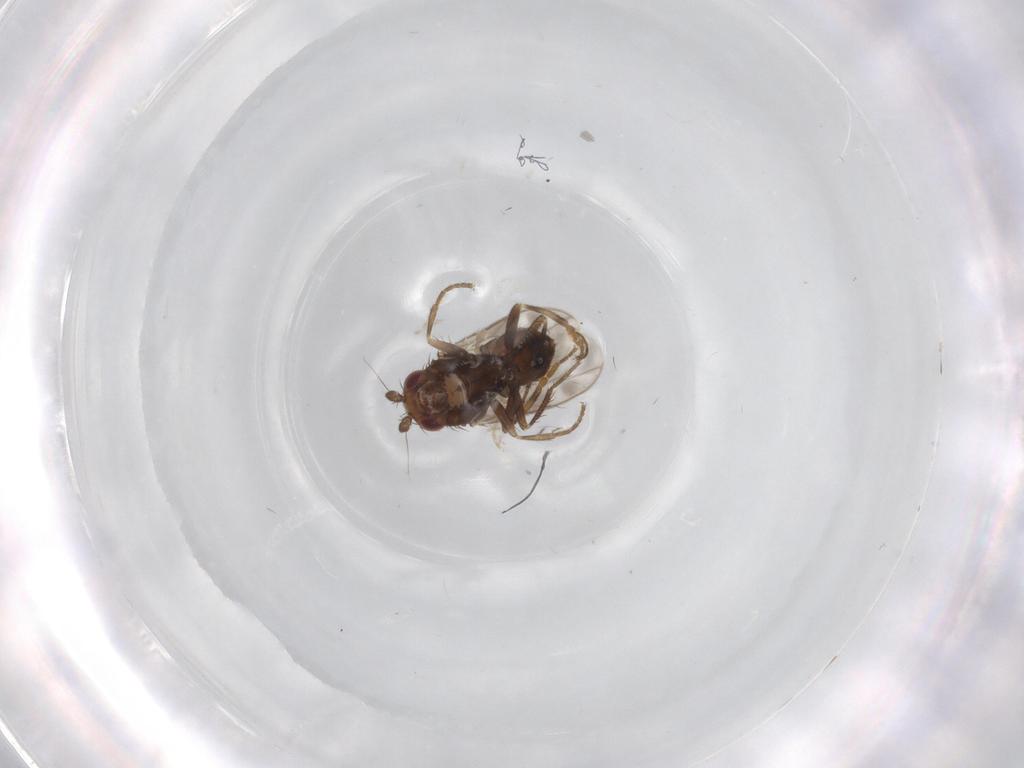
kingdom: Animalia
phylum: Arthropoda
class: Insecta
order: Diptera
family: Sphaeroceridae
